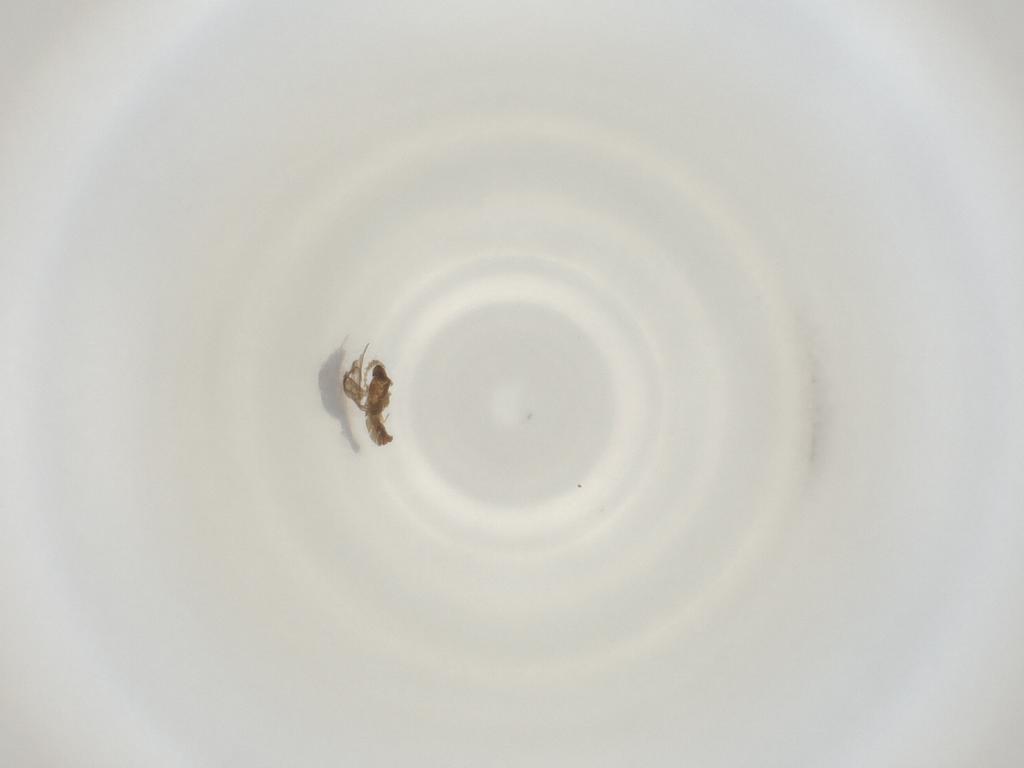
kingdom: Animalia
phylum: Arthropoda
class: Insecta
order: Diptera
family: Cecidomyiidae
